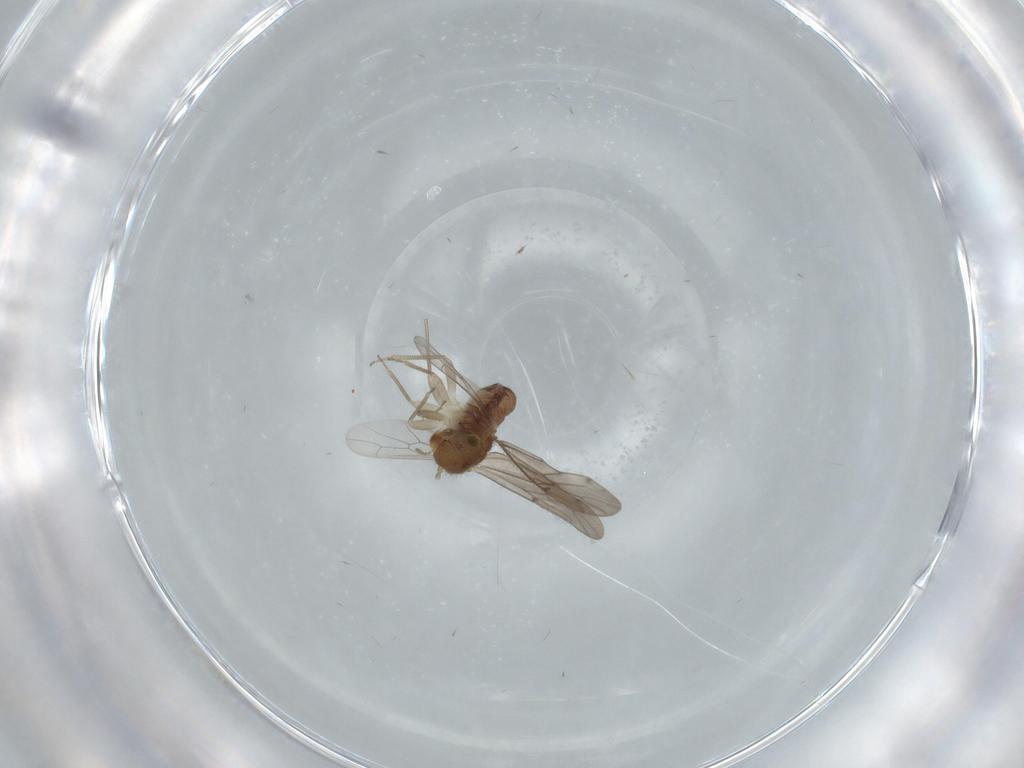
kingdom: Animalia
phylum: Arthropoda
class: Insecta
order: Psocodea
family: Ectopsocidae
